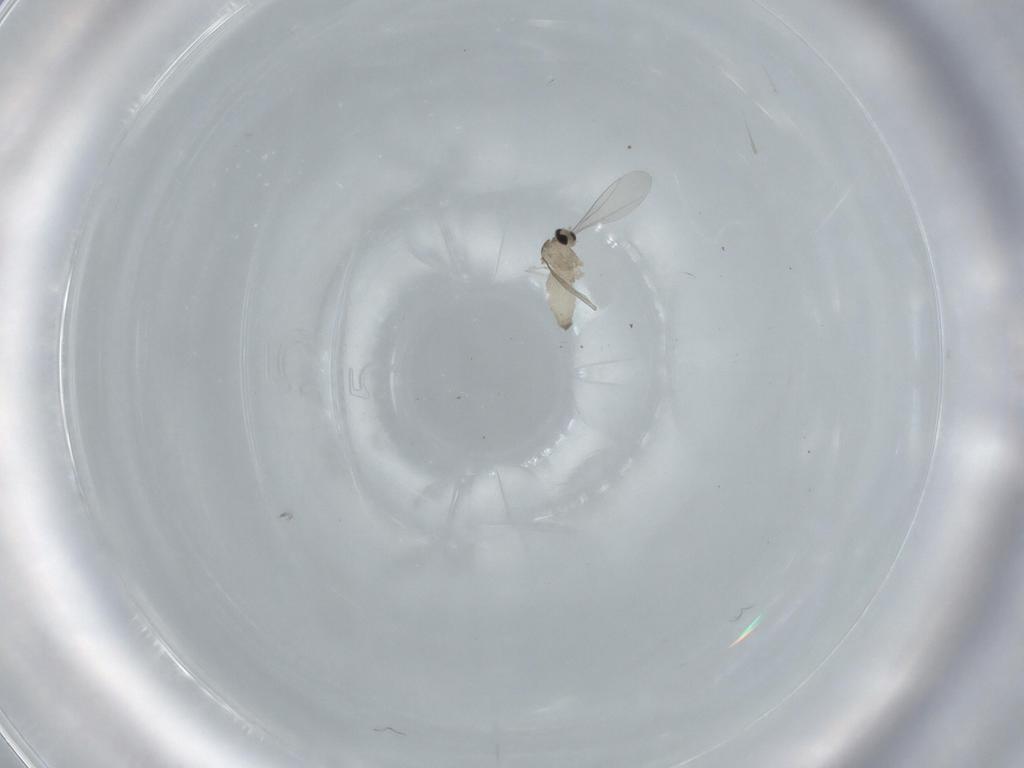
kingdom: Animalia
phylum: Arthropoda
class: Insecta
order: Diptera
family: Cecidomyiidae
